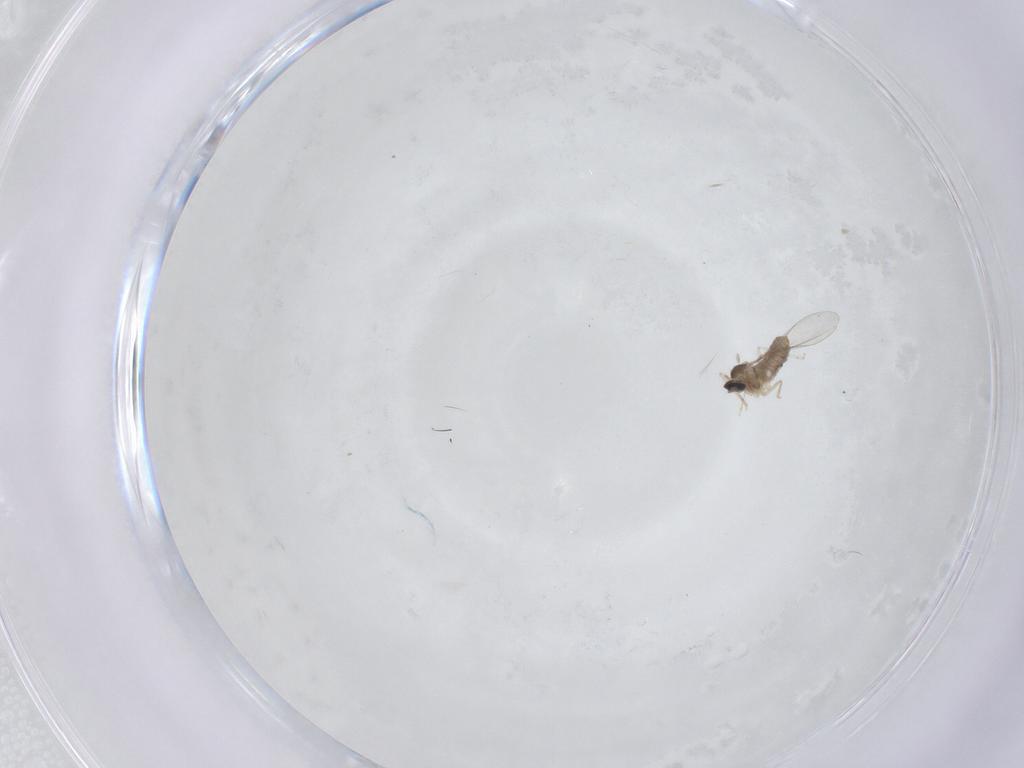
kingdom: Animalia
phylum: Arthropoda
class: Insecta
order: Diptera
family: Cecidomyiidae
